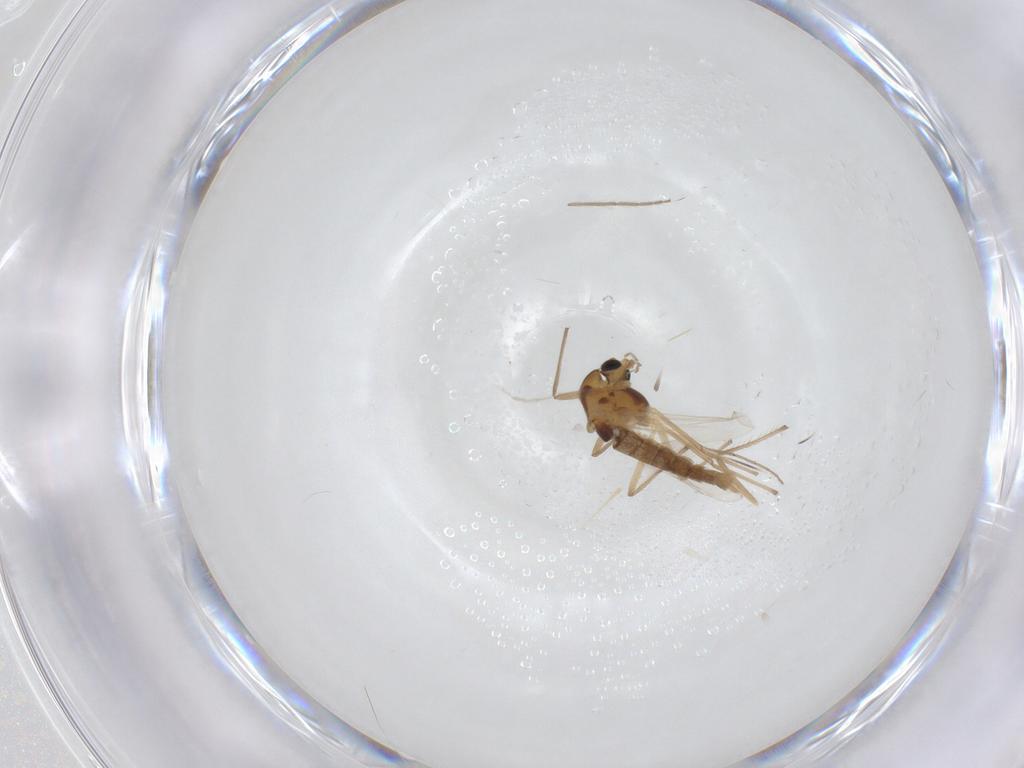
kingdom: Animalia
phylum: Arthropoda
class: Insecta
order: Diptera
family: Chironomidae
